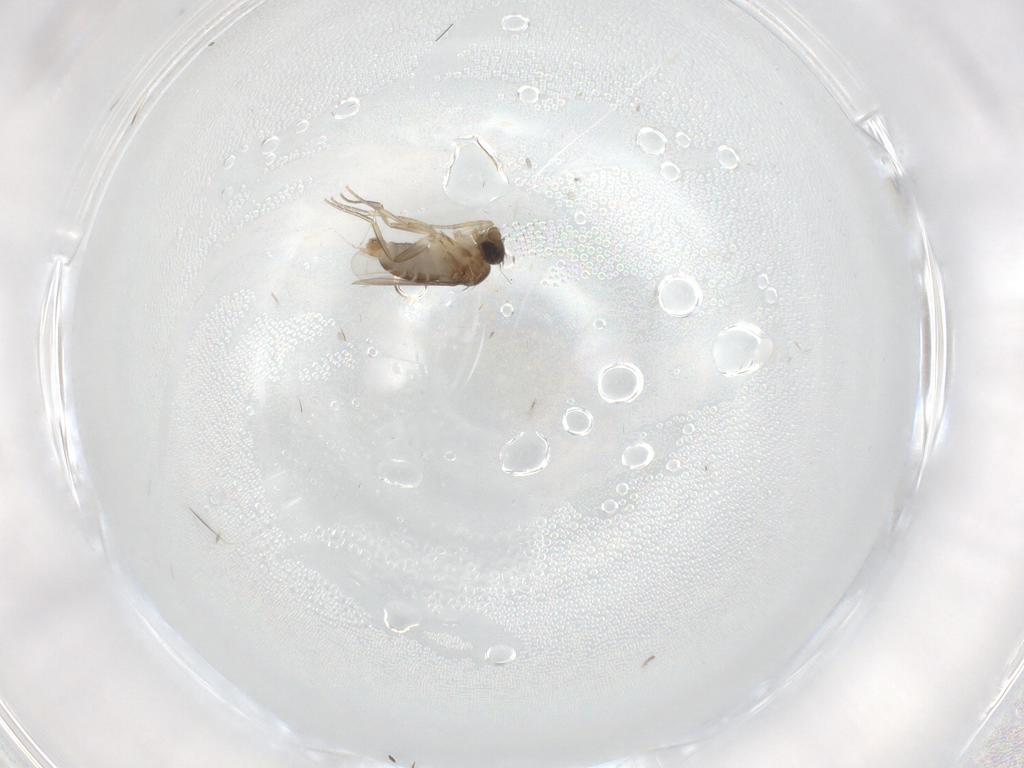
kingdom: Animalia
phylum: Arthropoda
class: Insecta
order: Diptera
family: Phoridae
